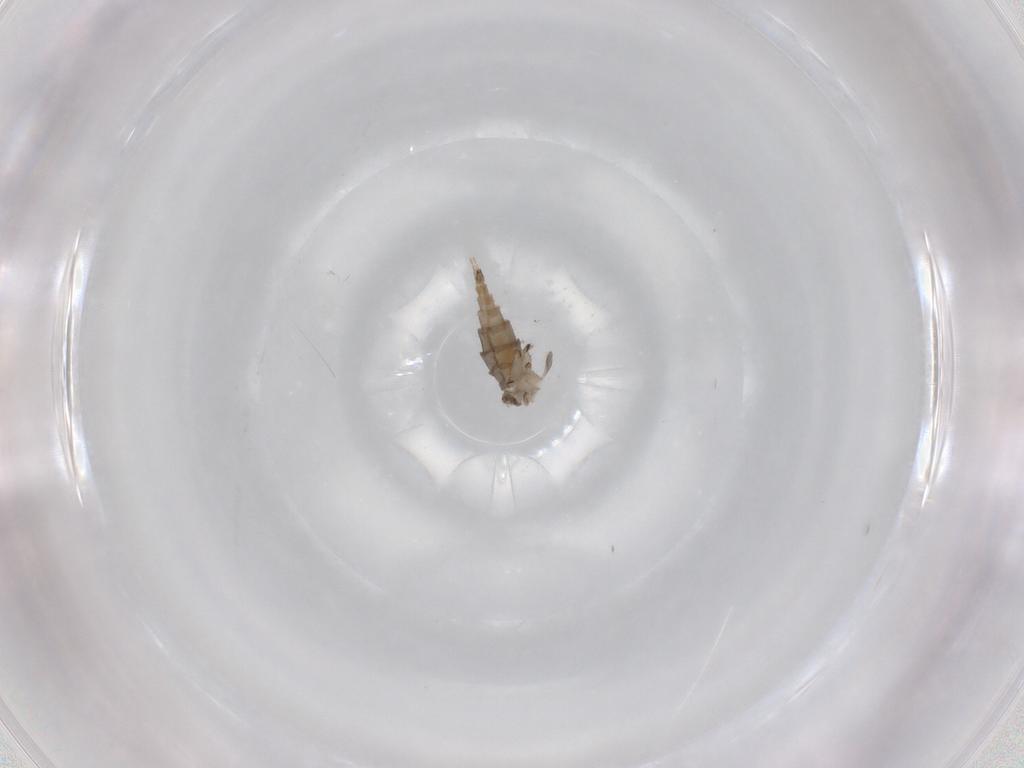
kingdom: Animalia
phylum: Arthropoda
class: Insecta
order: Diptera
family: Sciaridae
